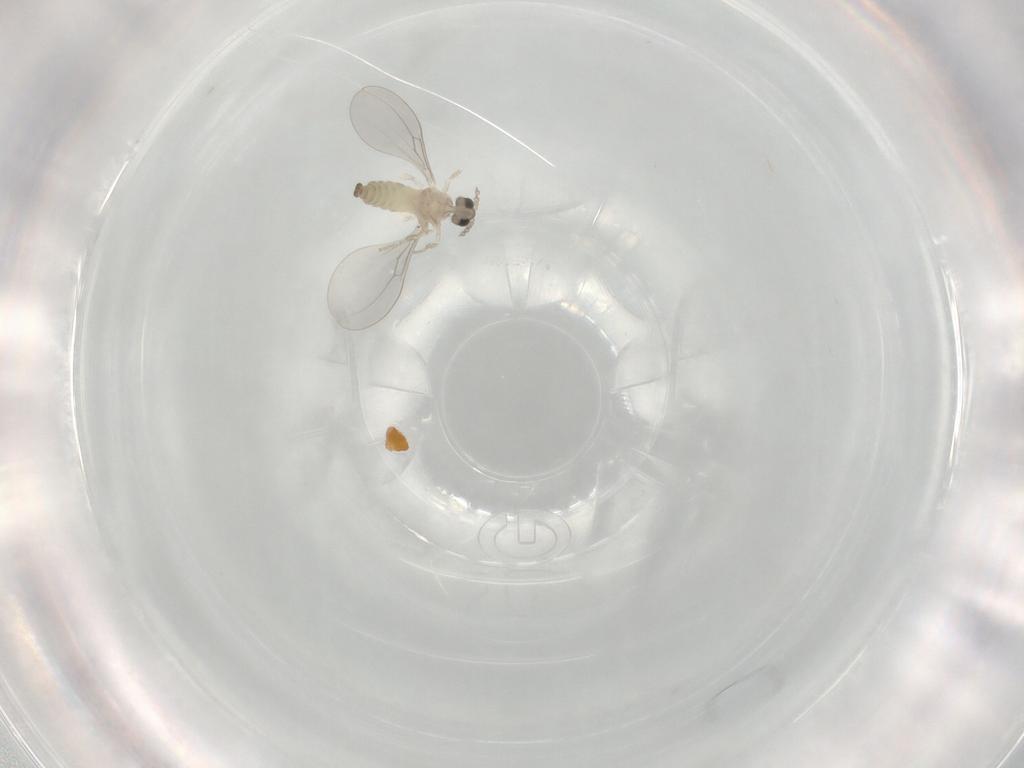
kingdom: Animalia
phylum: Arthropoda
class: Insecta
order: Diptera
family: Cecidomyiidae
